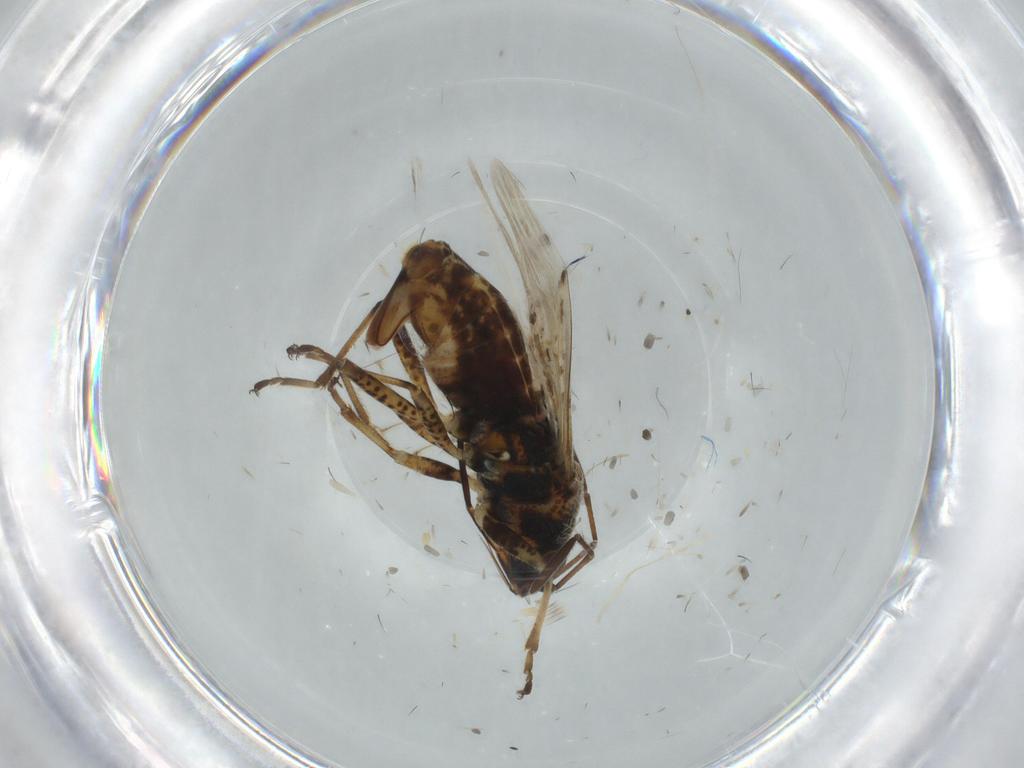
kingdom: Animalia
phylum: Arthropoda
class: Insecta
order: Hemiptera
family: Lygaeidae
